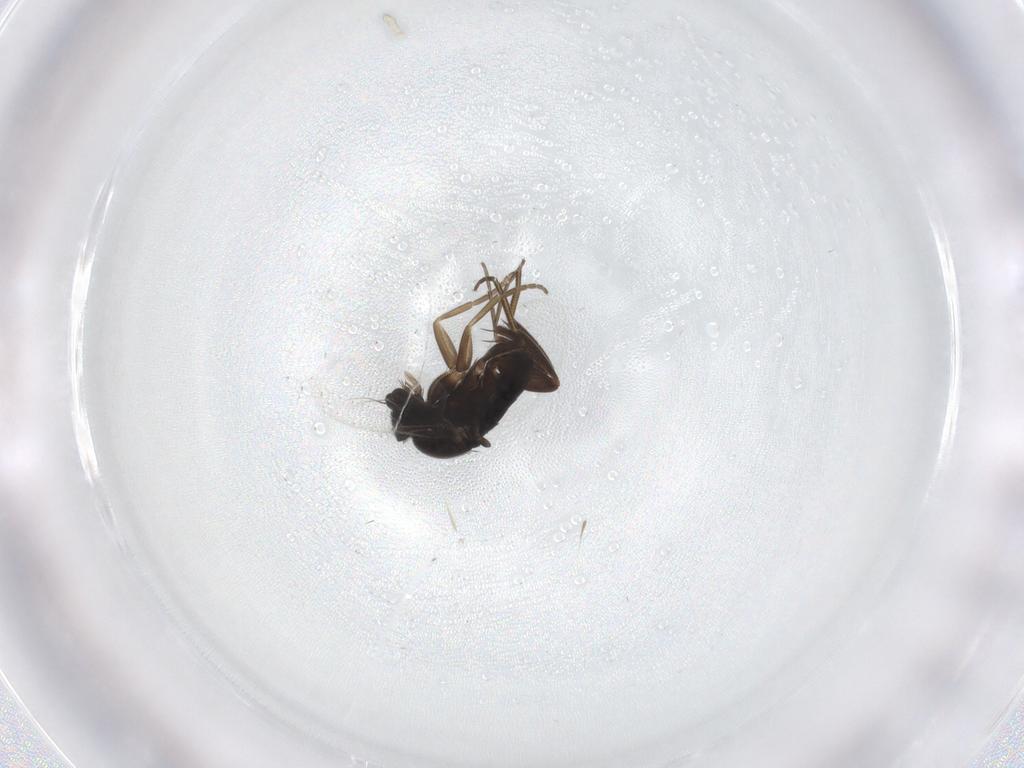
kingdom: Animalia
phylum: Arthropoda
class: Insecta
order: Diptera
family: Phoridae
